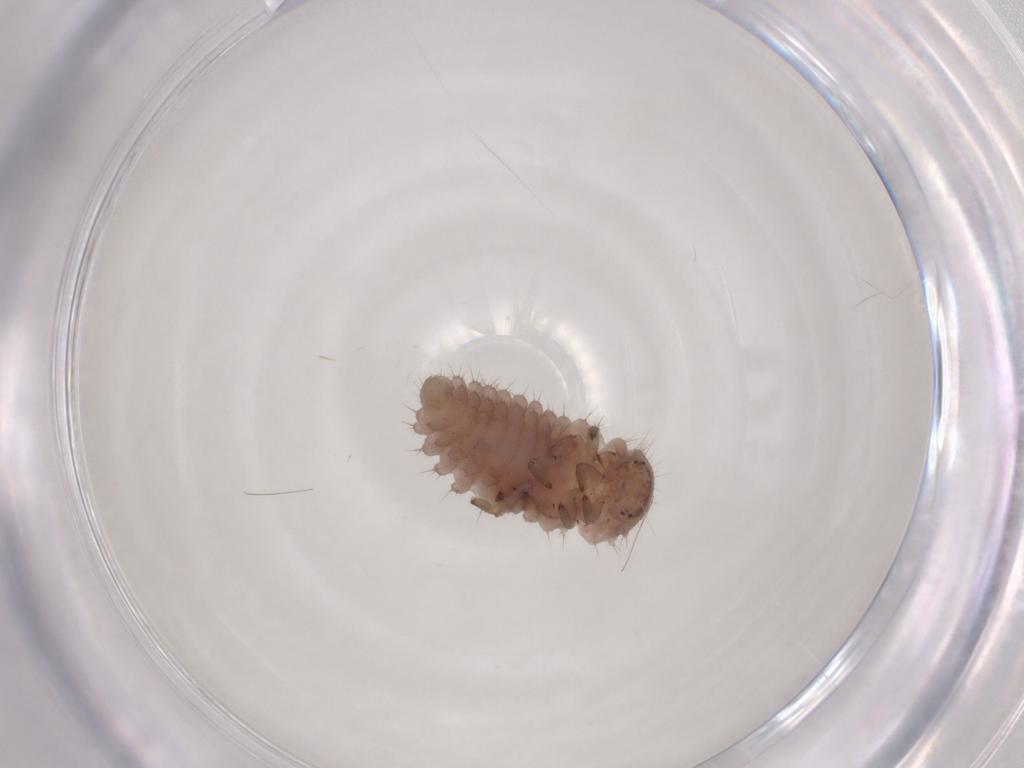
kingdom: Animalia
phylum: Arthropoda
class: Insecta
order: Coleoptera
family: Coccinellidae
